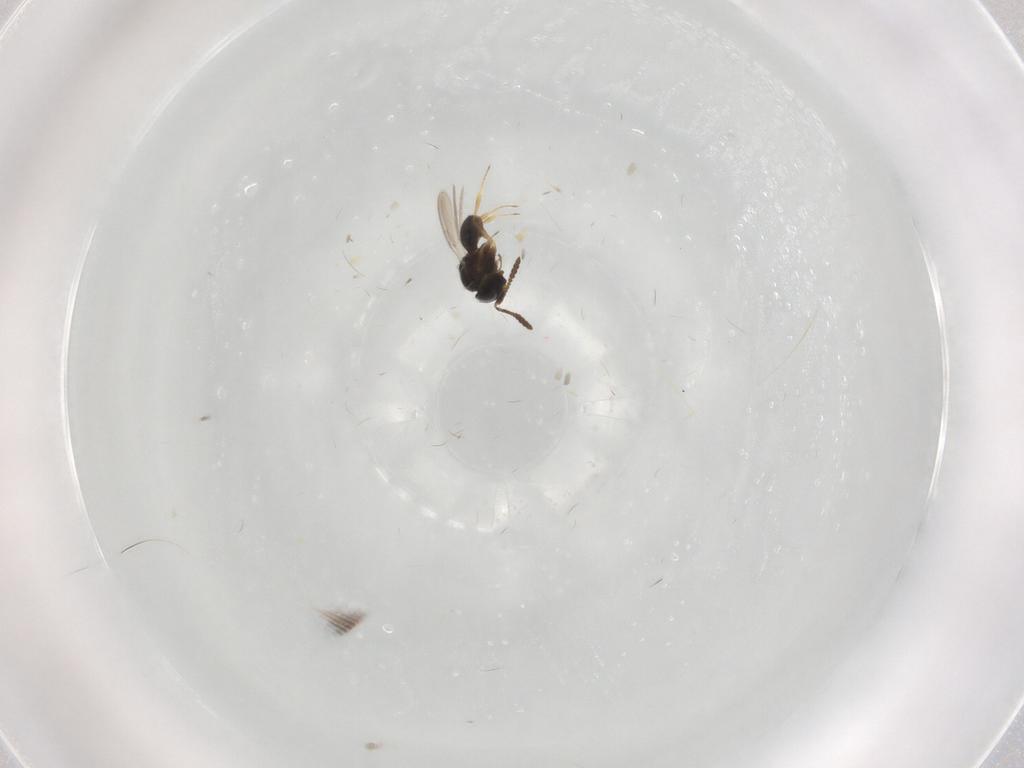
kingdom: Animalia
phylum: Arthropoda
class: Insecta
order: Hymenoptera
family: Scelionidae
